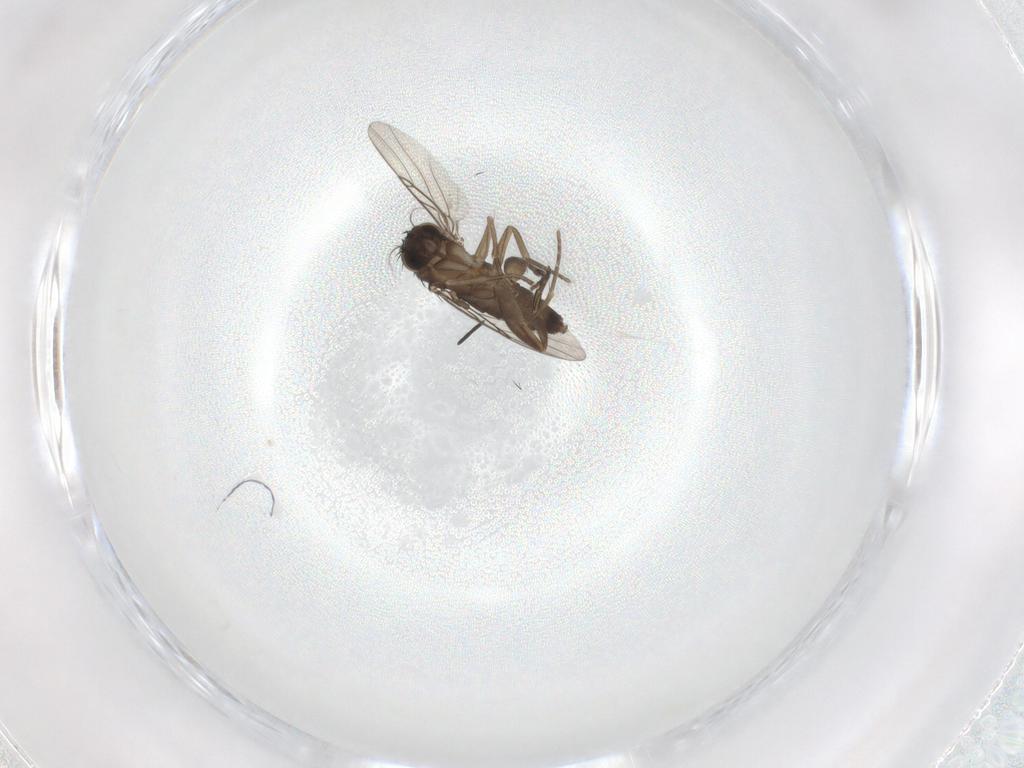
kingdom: Animalia
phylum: Arthropoda
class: Insecta
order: Diptera
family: Phoridae
